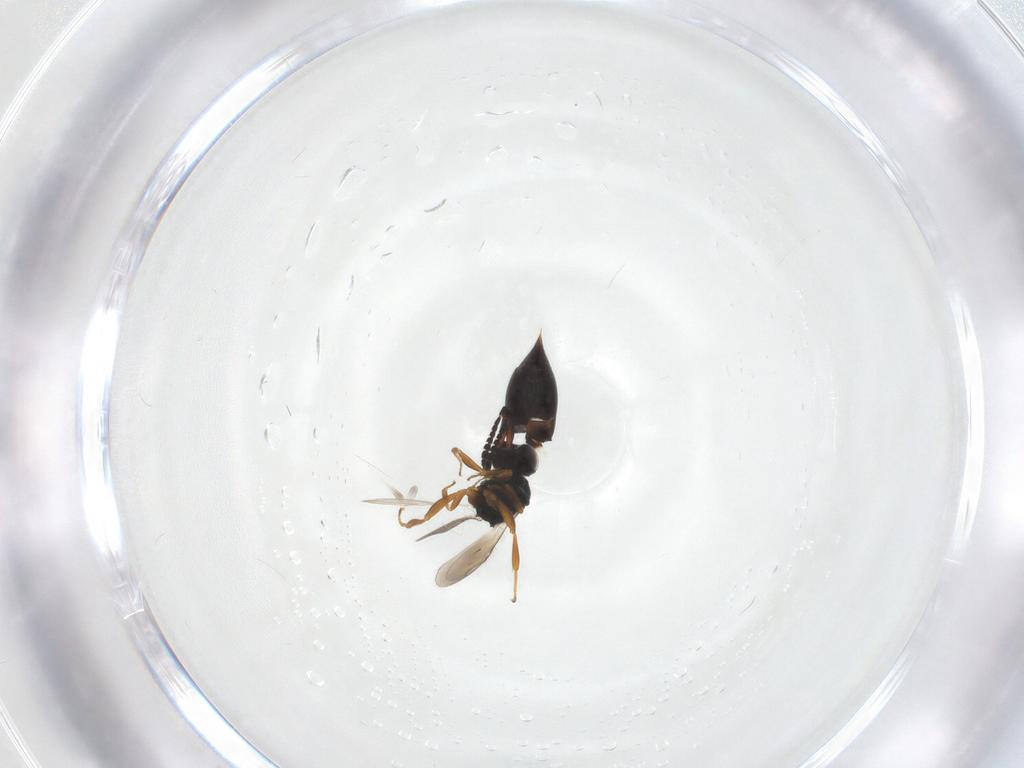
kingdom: Animalia
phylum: Arthropoda
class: Insecta
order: Hymenoptera
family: Ceraphronidae
